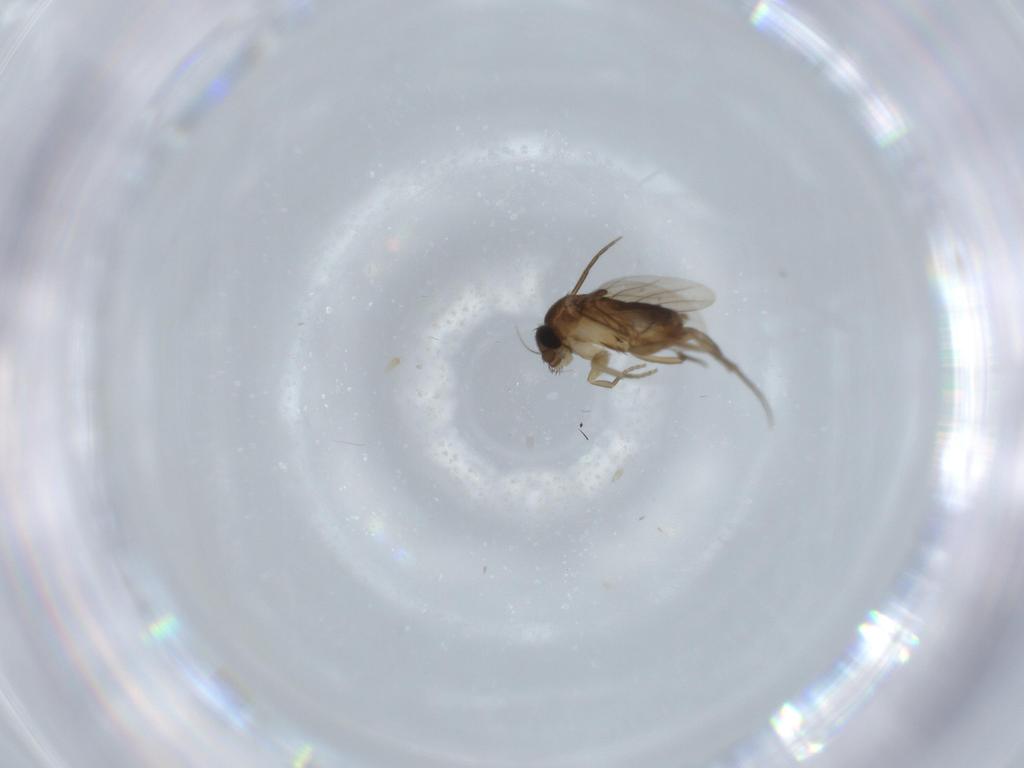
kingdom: Animalia
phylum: Arthropoda
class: Insecta
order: Diptera
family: Phoridae
